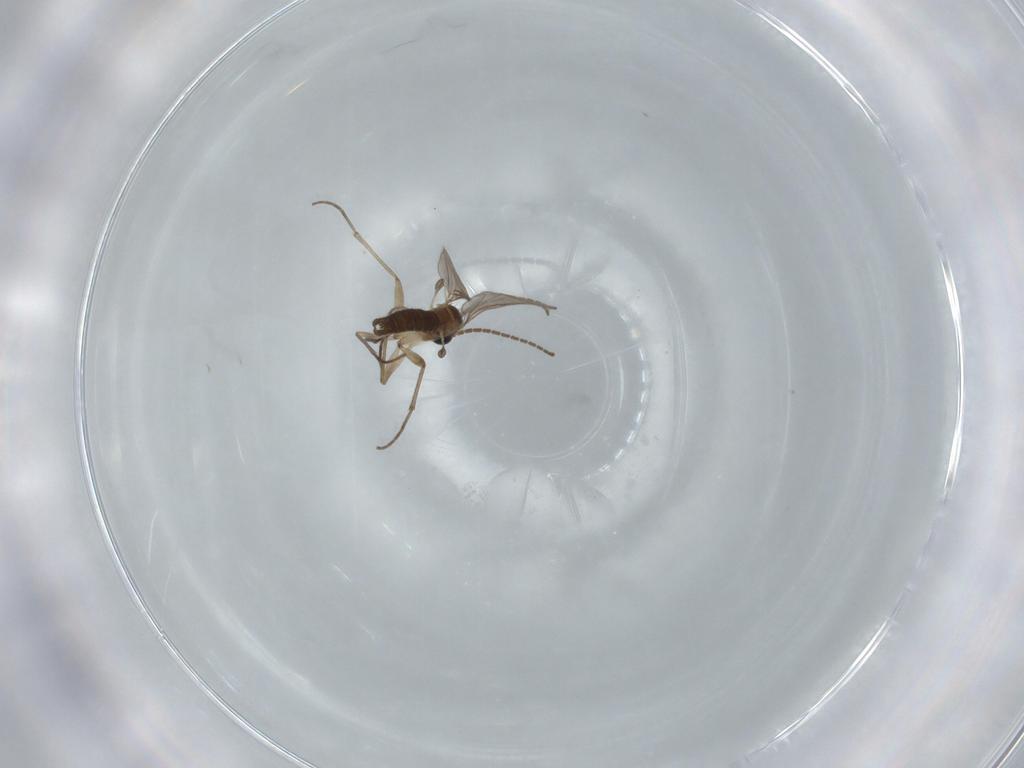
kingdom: Animalia
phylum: Arthropoda
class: Insecta
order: Diptera
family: Sciaridae
